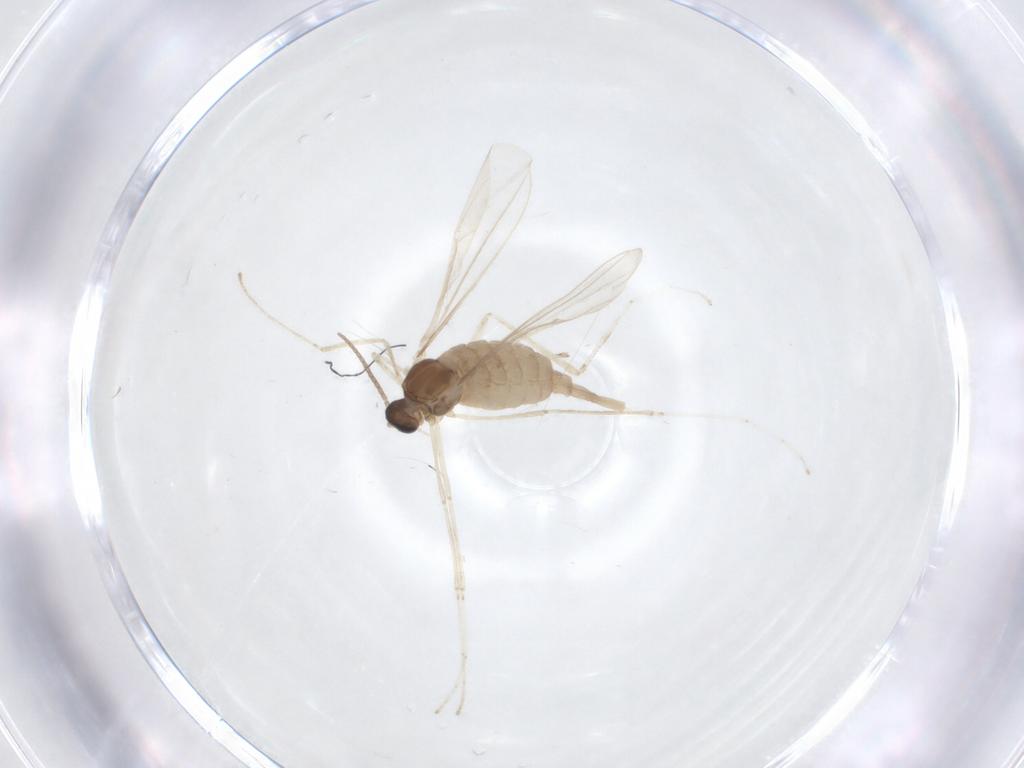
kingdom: Animalia
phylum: Arthropoda
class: Insecta
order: Diptera
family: Cecidomyiidae
